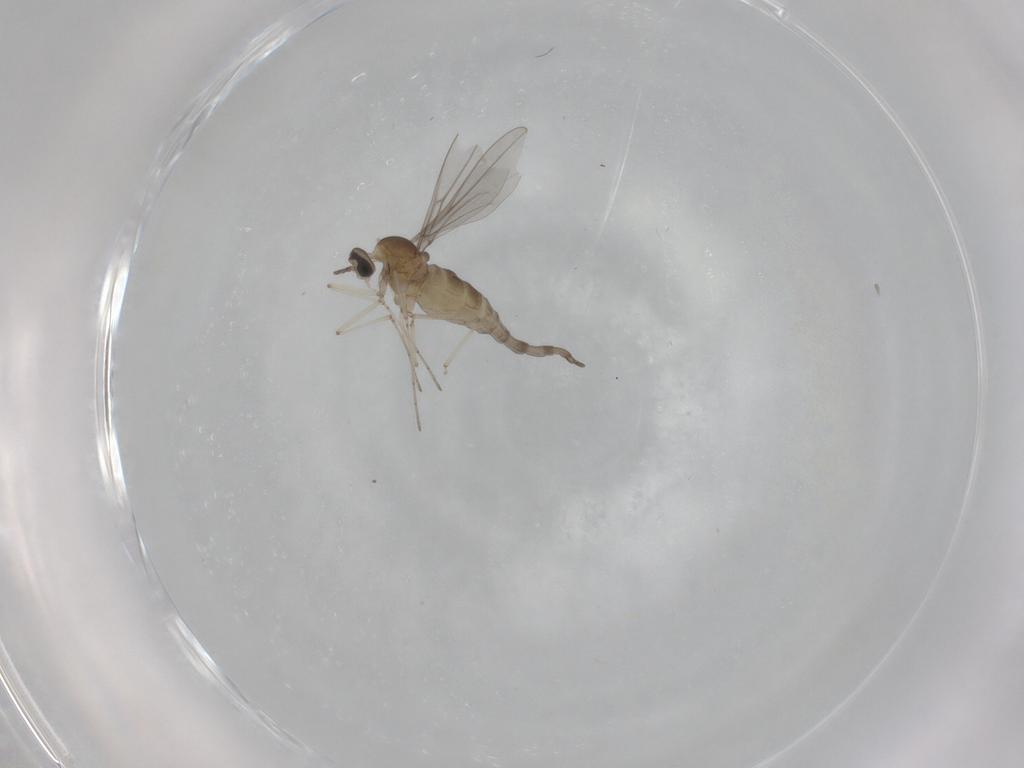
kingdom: Animalia
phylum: Arthropoda
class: Insecta
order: Diptera
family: Cecidomyiidae
